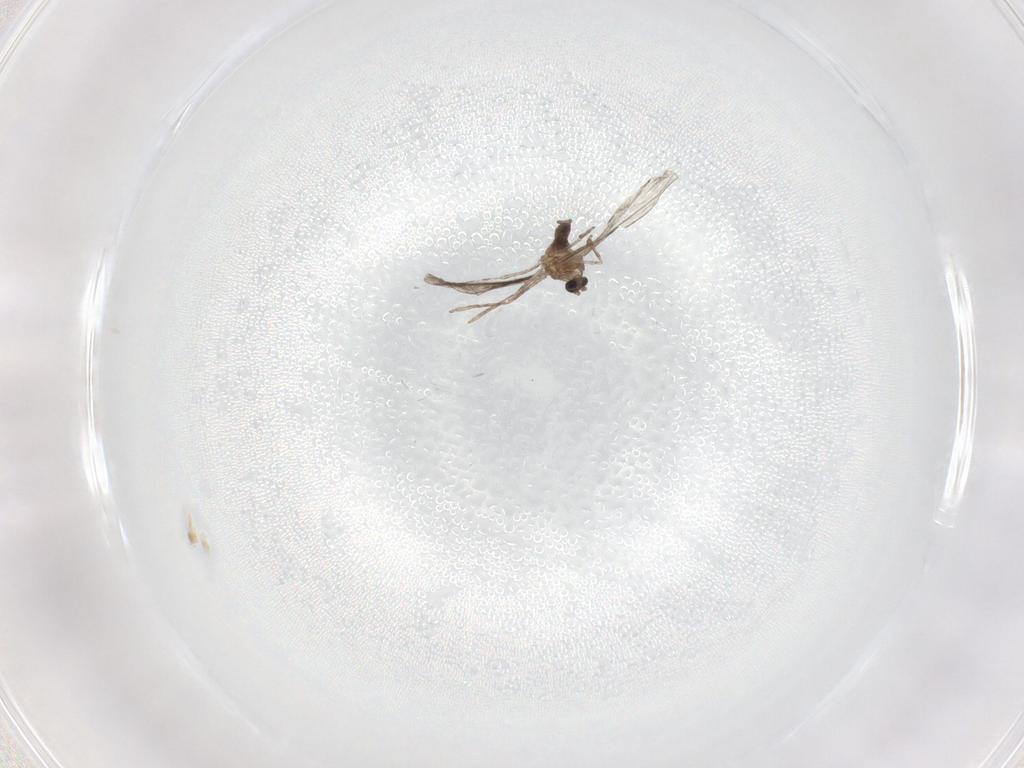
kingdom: Animalia
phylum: Arthropoda
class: Insecta
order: Diptera
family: Cecidomyiidae
